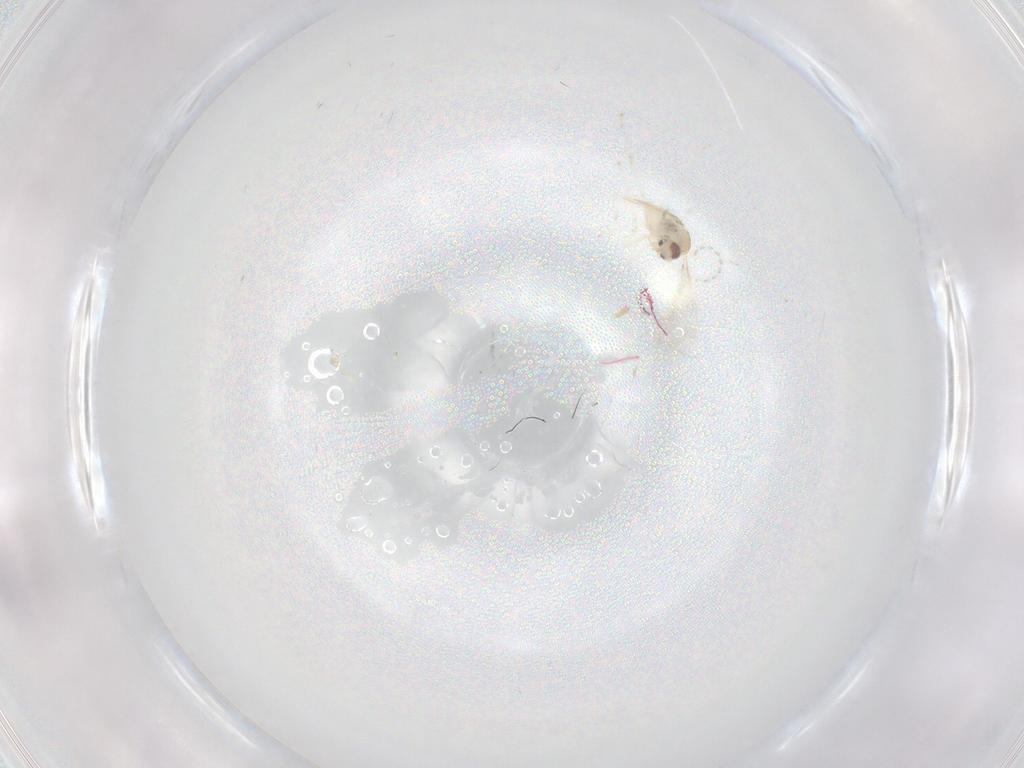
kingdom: Animalia
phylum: Arthropoda
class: Insecta
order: Diptera
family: Cecidomyiidae
